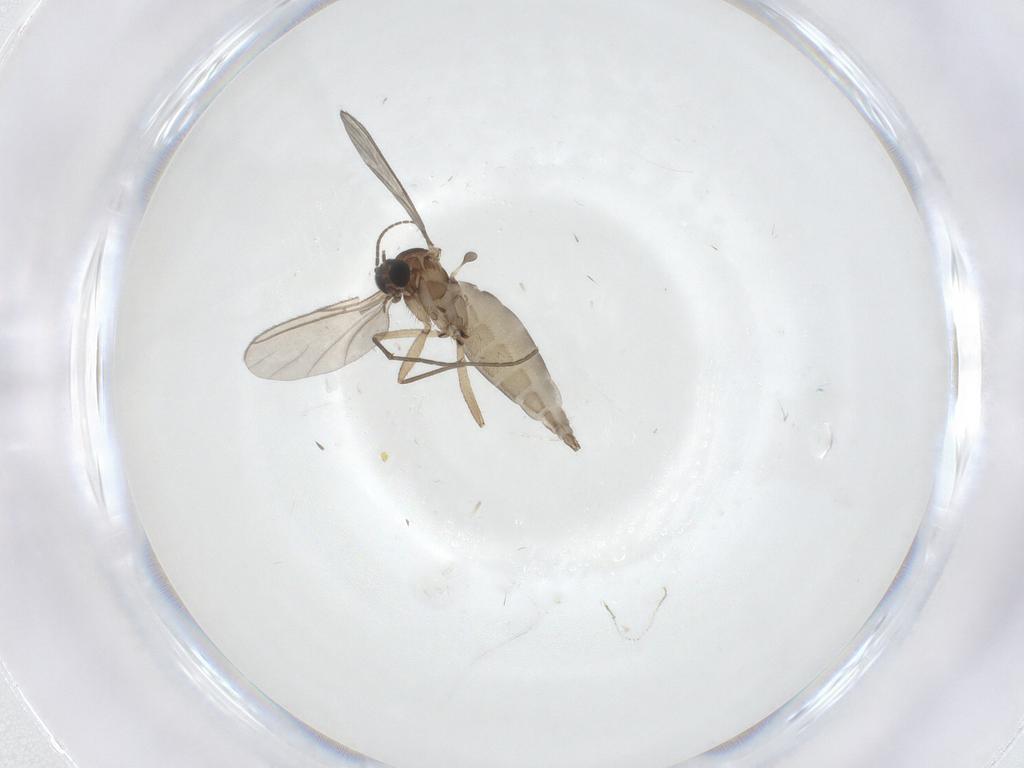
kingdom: Animalia
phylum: Arthropoda
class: Insecta
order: Diptera
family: Sciaridae
